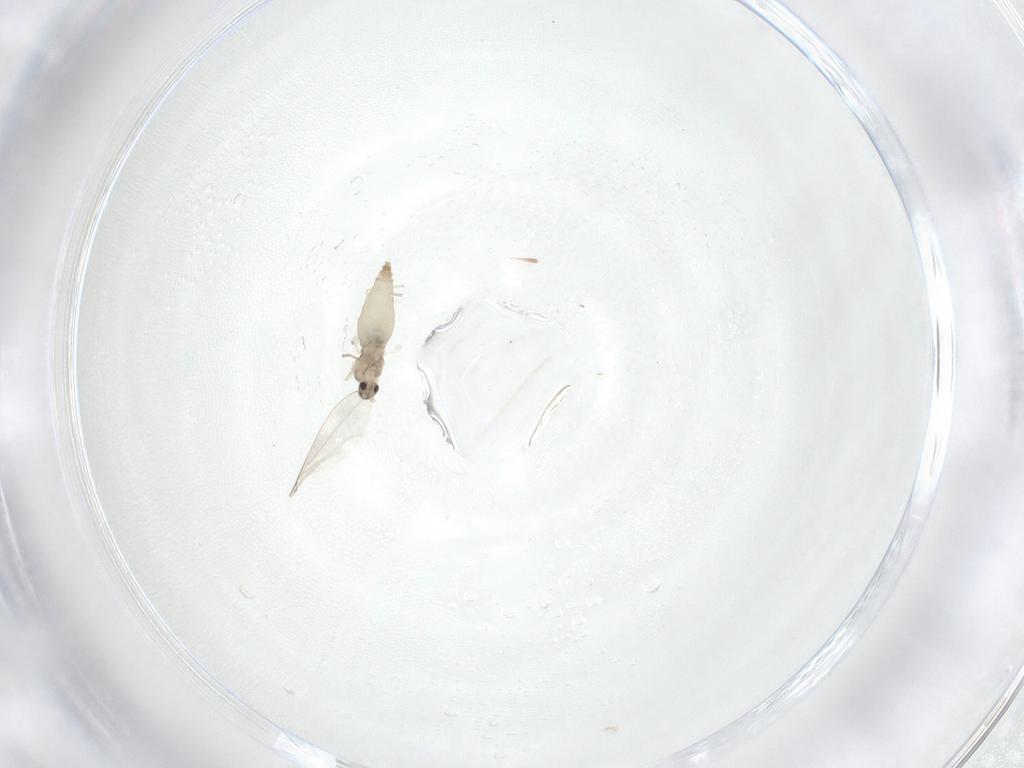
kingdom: Animalia
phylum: Arthropoda
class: Insecta
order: Diptera
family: Cecidomyiidae
